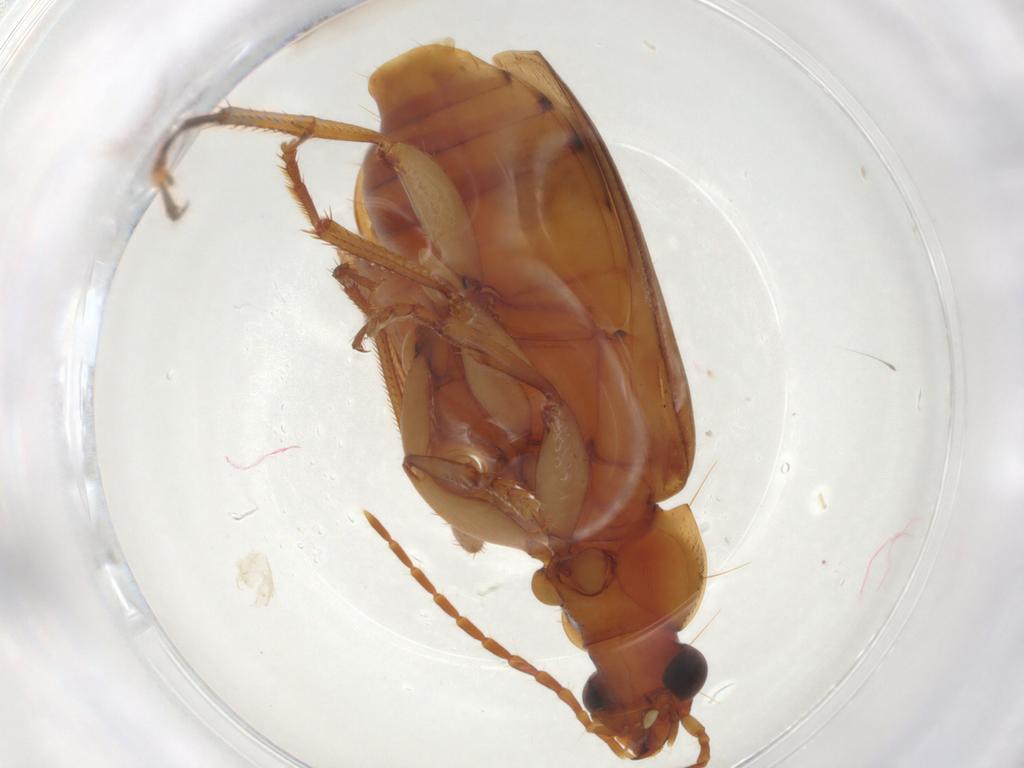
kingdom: Animalia
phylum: Arthropoda
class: Insecta
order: Coleoptera
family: Carabidae
